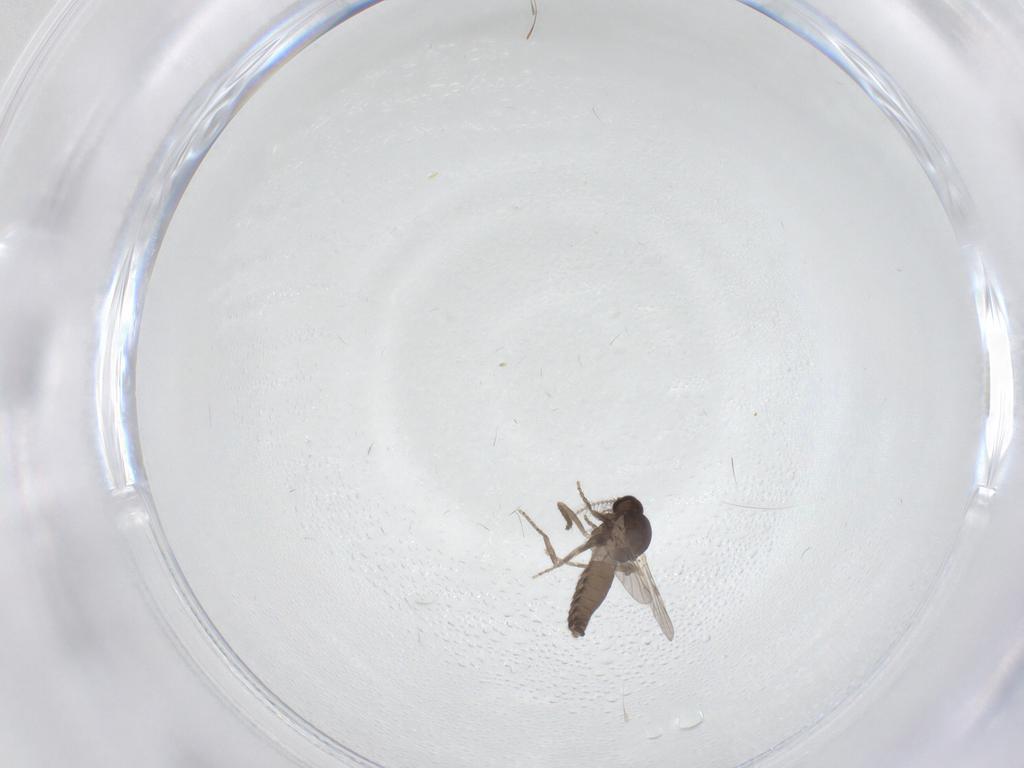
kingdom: Animalia
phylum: Arthropoda
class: Insecta
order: Diptera
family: Ceratopogonidae
